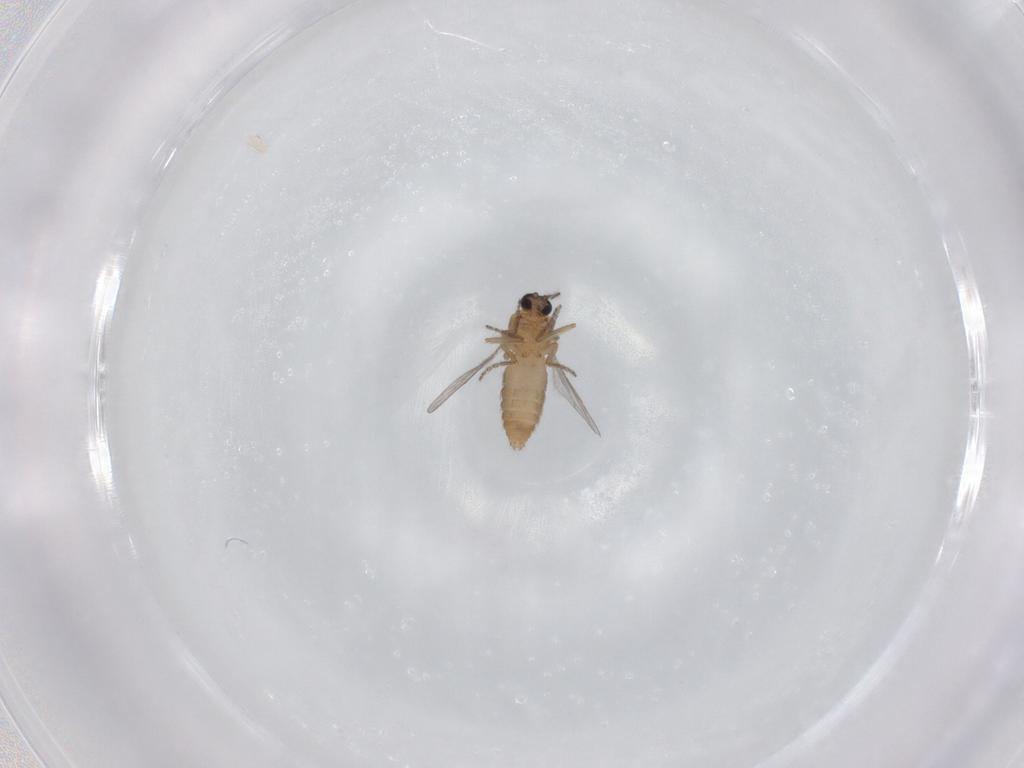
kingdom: Animalia
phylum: Arthropoda
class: Insecta
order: Diptera
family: Ceratopogonidae
